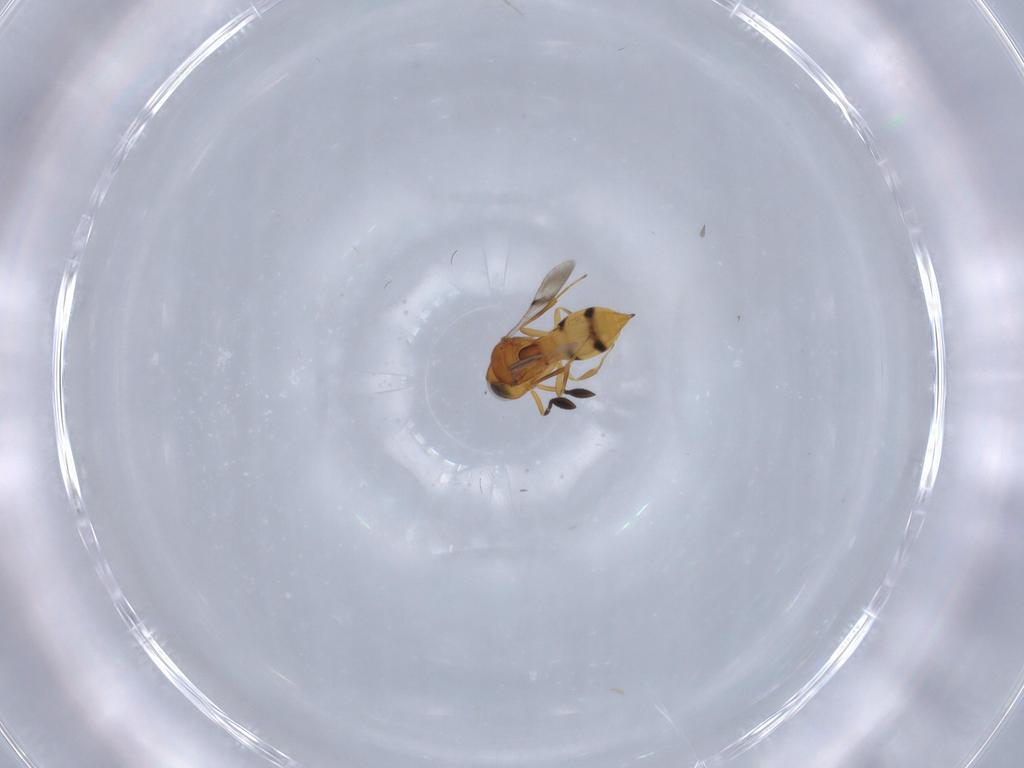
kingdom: Animalia
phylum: Arthropoda
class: Insecta
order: Hymenoptera
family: Scelionidae
